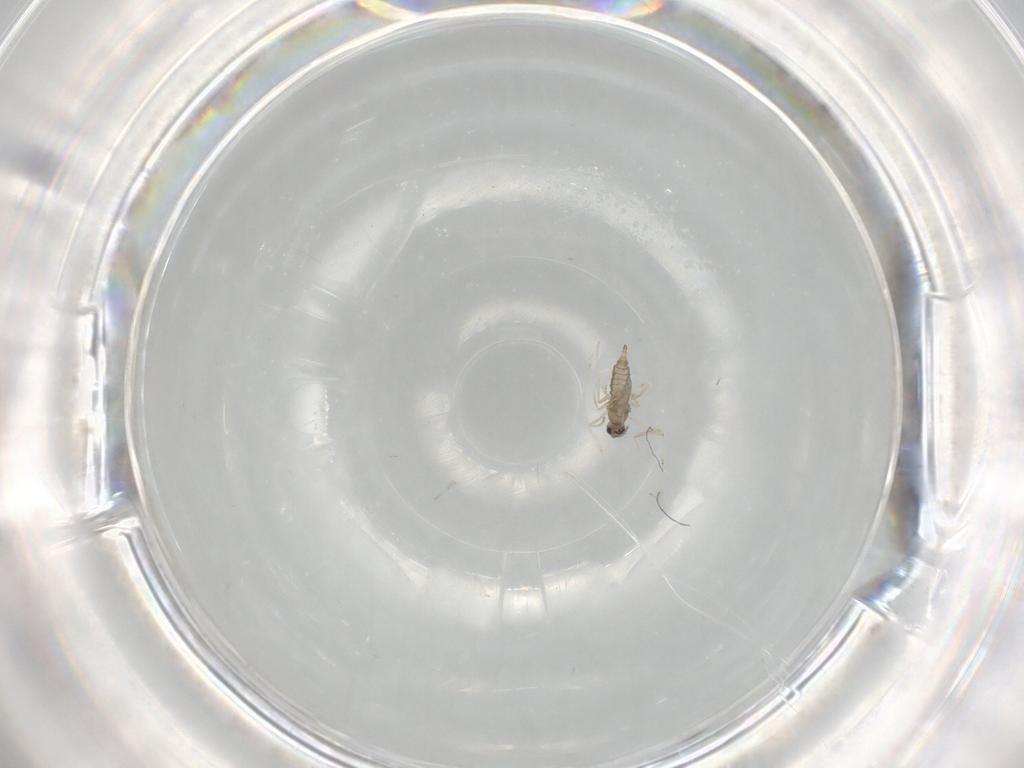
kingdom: Animalia
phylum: Arthropoda
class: Insecta
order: Diptera
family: Cecidomyiidae
